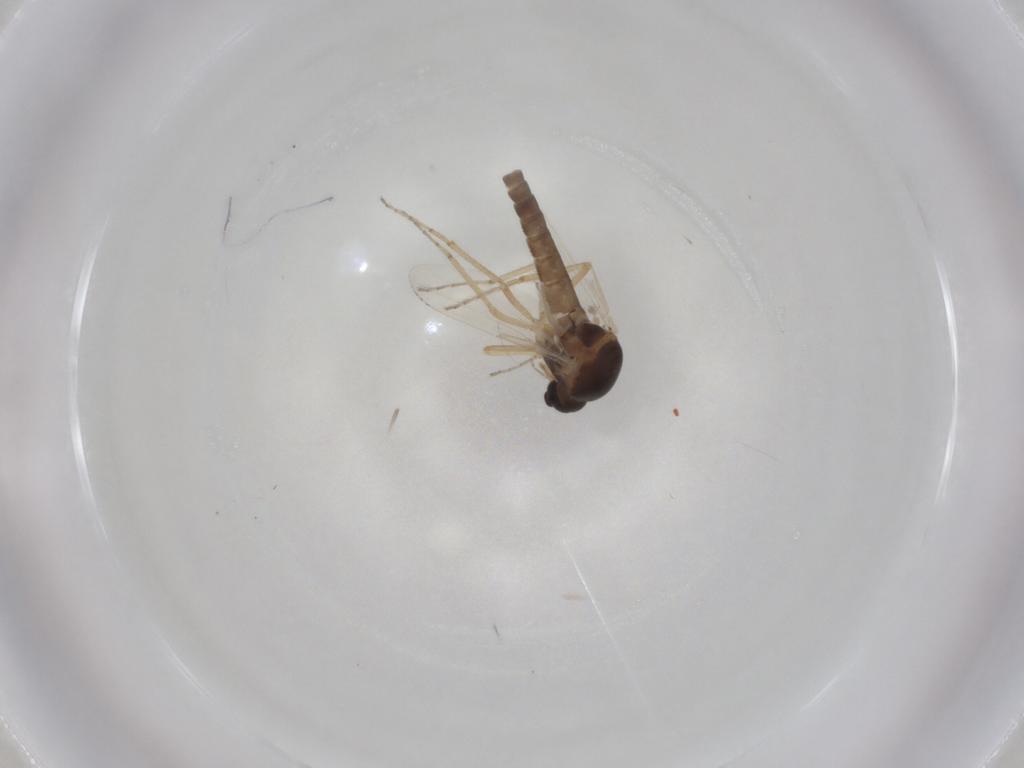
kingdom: Animalia
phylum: Arthropoda
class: Insecta
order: Diptera
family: Ceratopogonidae
